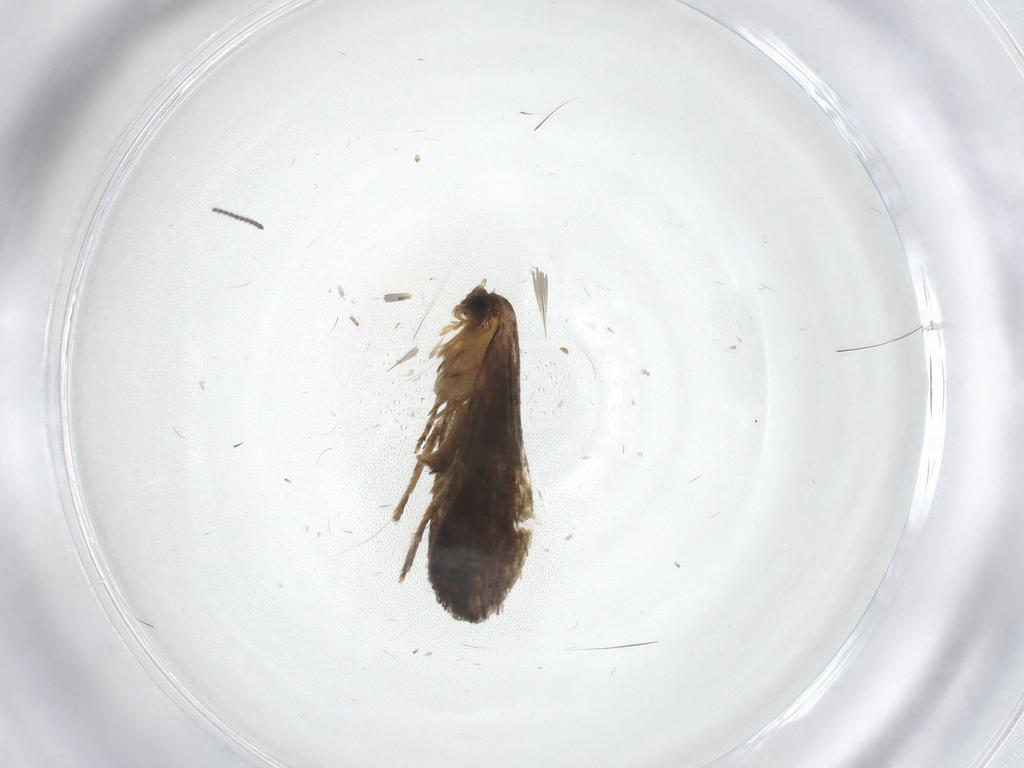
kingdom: Animalia
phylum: Arthropoda
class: Insecta
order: Lepidoptera
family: Tineidae
